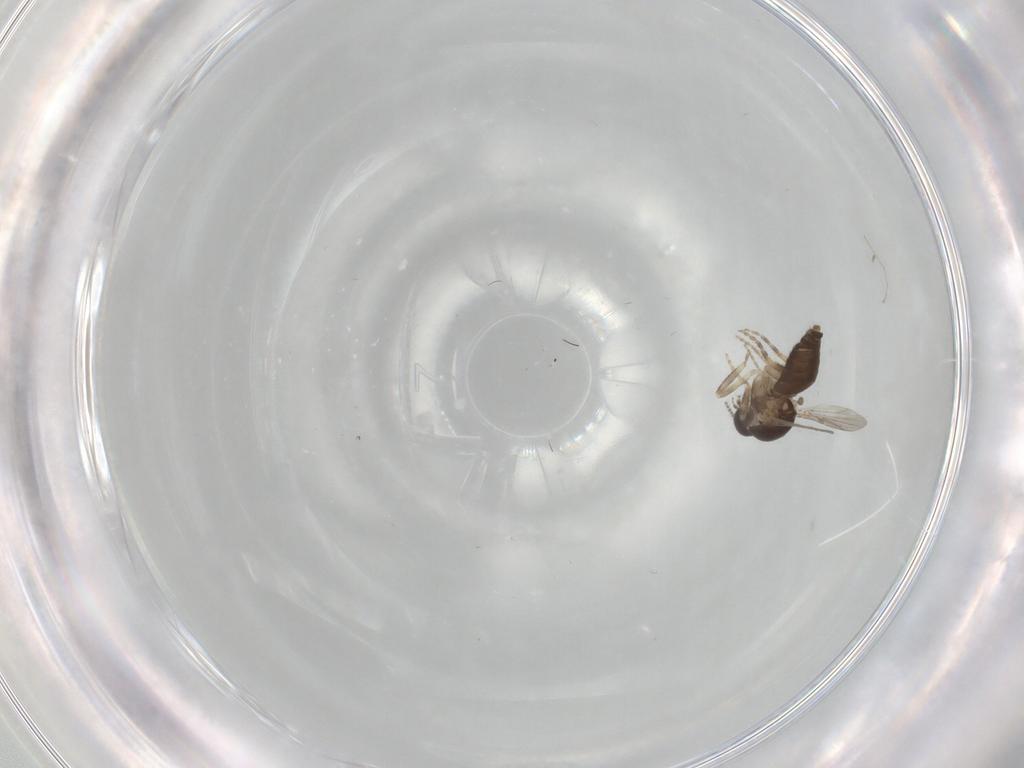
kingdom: Animalia
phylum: Arthropoda
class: Insecta
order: Diptera
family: Ceratopogonidae
